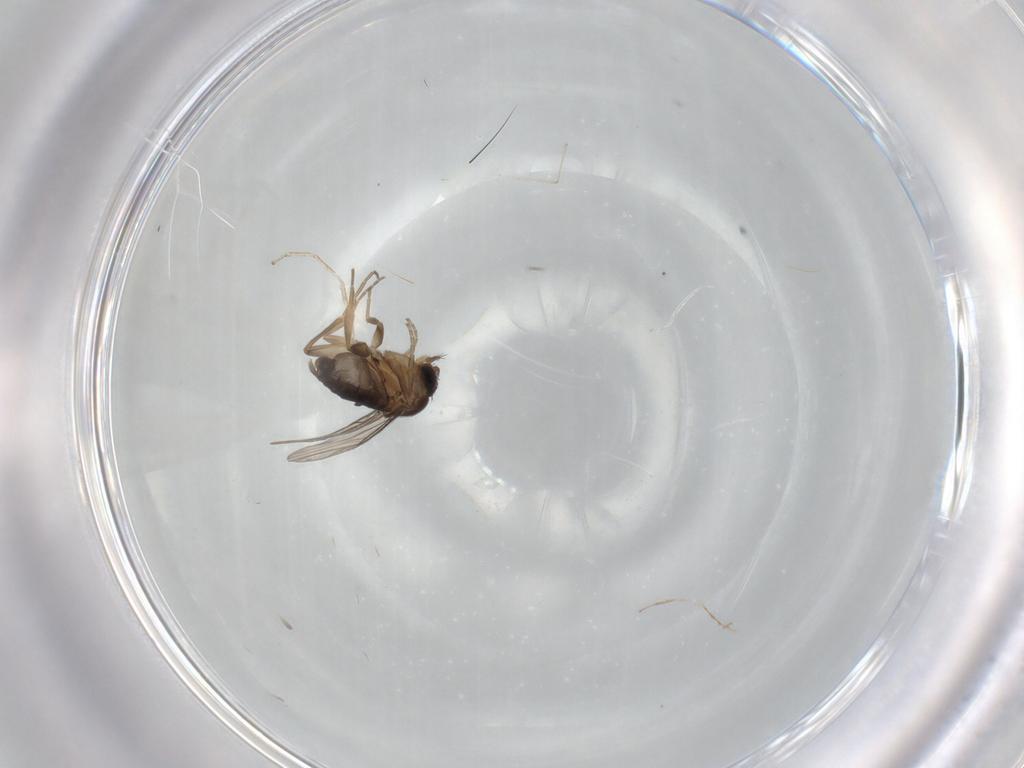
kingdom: Animalia
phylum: Arthropoda
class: Insecta
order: Diptera
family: Phoridae
